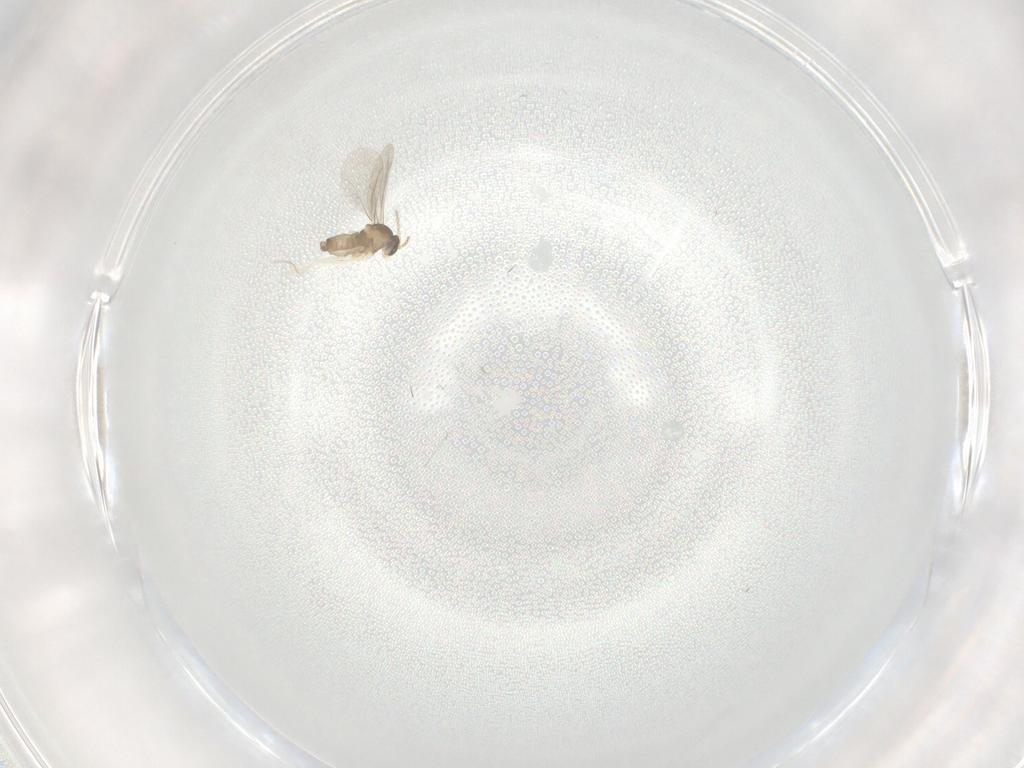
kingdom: Animalia
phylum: Arthropoda
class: Insecta
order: Diptera
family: Cecidomyiidae
